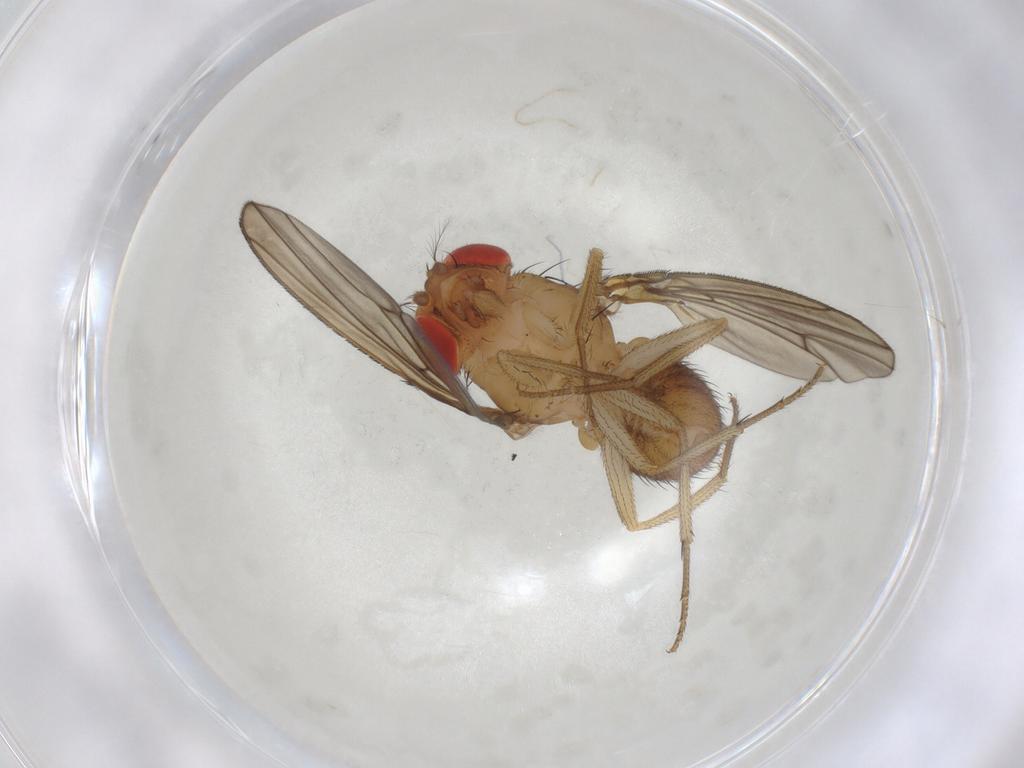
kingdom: Animalia
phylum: Arthropoda
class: Insecta
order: Diptera
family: Drosophilidae
